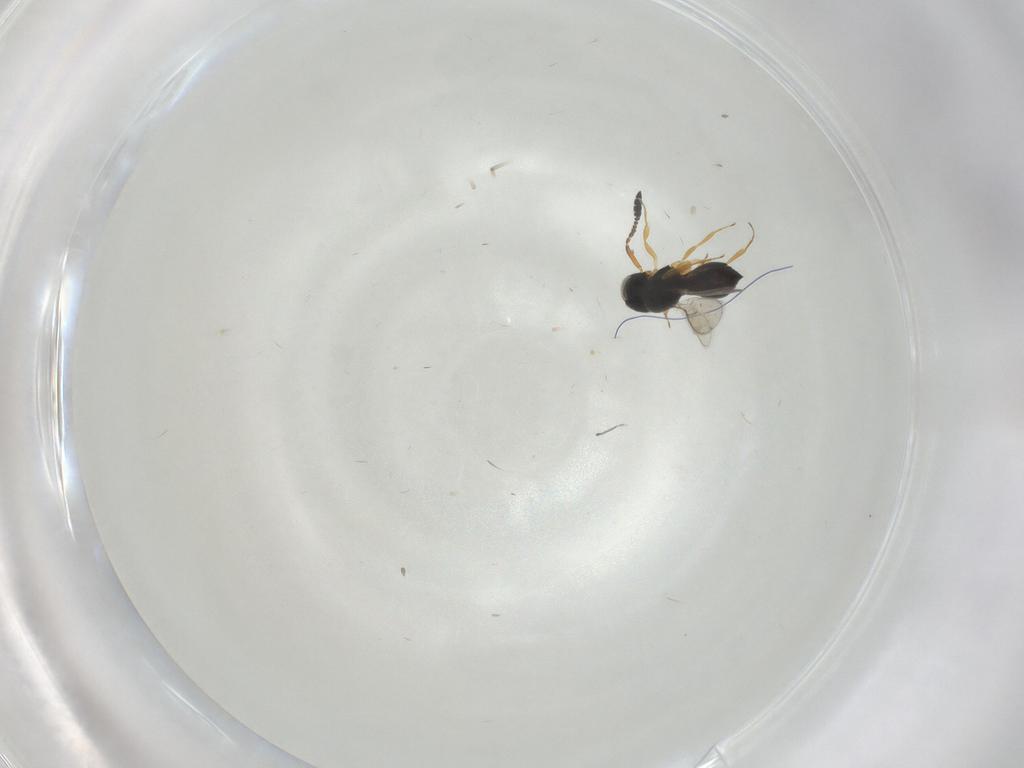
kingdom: Animalia
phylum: Arthropoda
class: Insecta
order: Hymenoptera
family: Scelionidae
